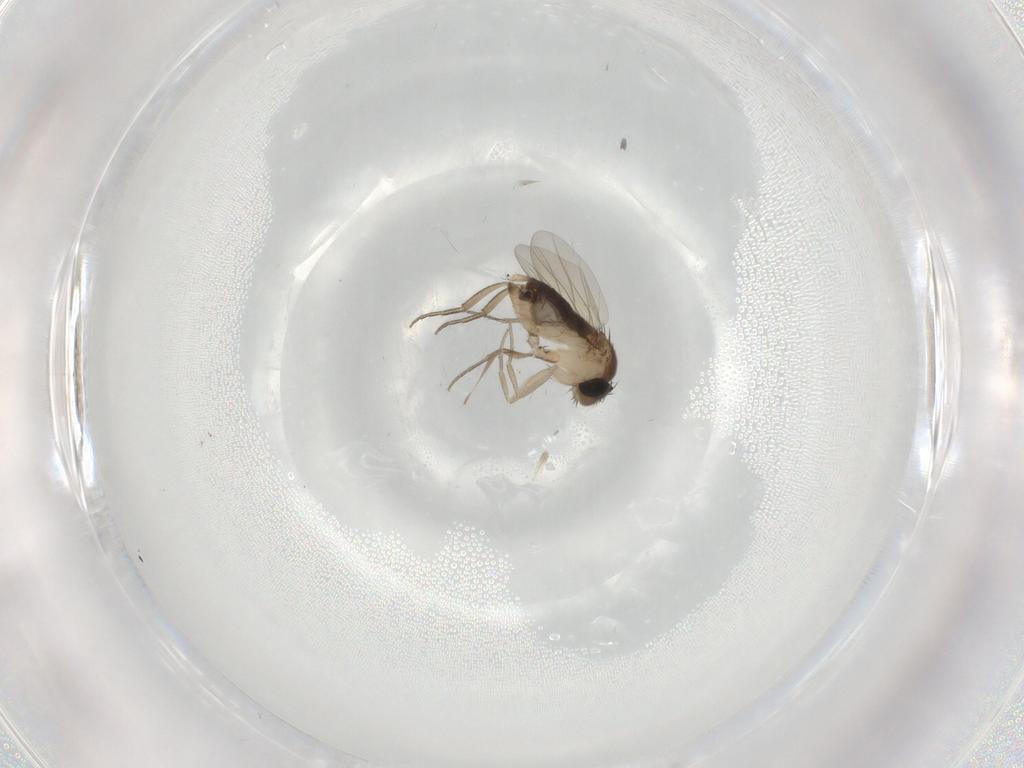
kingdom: Animalia
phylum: Arthropoda
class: Insecta
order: Diptera
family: Phoridae
